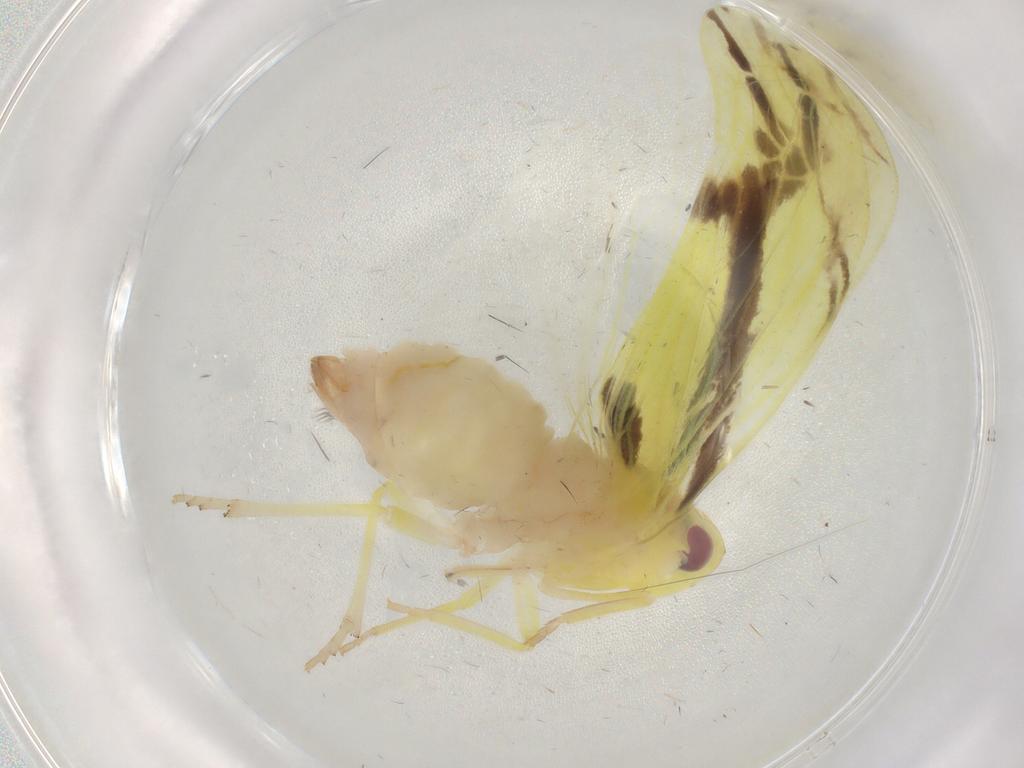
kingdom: Animalia
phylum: Arthropoda
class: Insecta
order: Hemiptera
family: Derbidae
